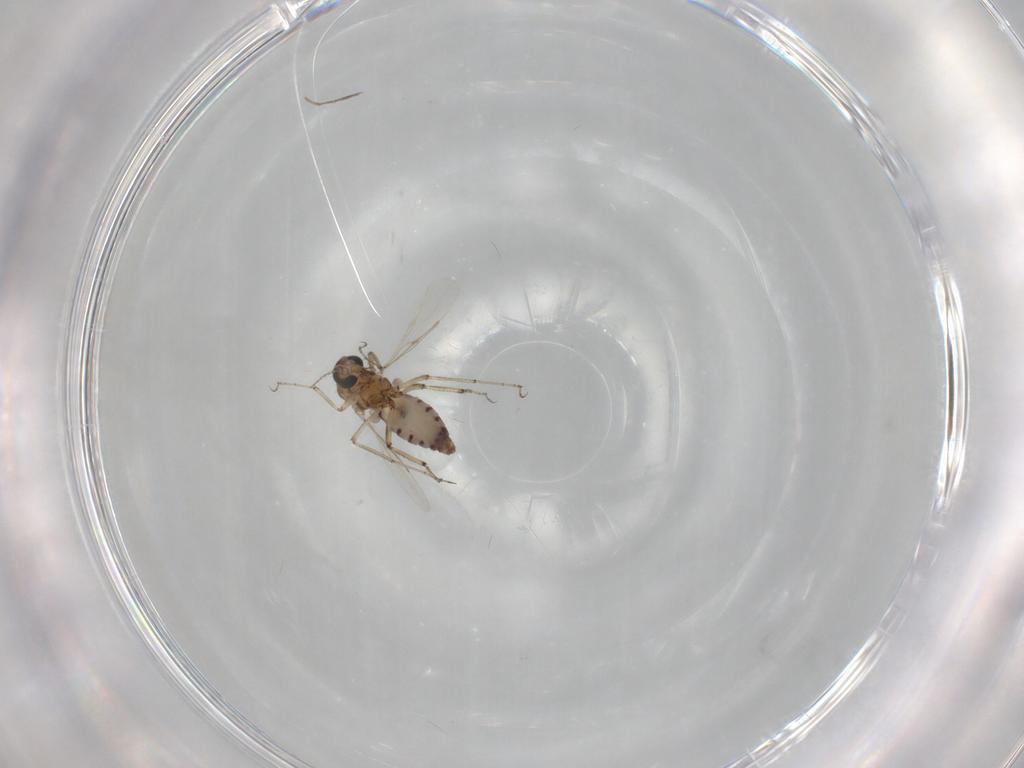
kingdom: Animalia
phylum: Arthropoda
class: Insecta
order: Diptera
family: Ceratopogonidae
